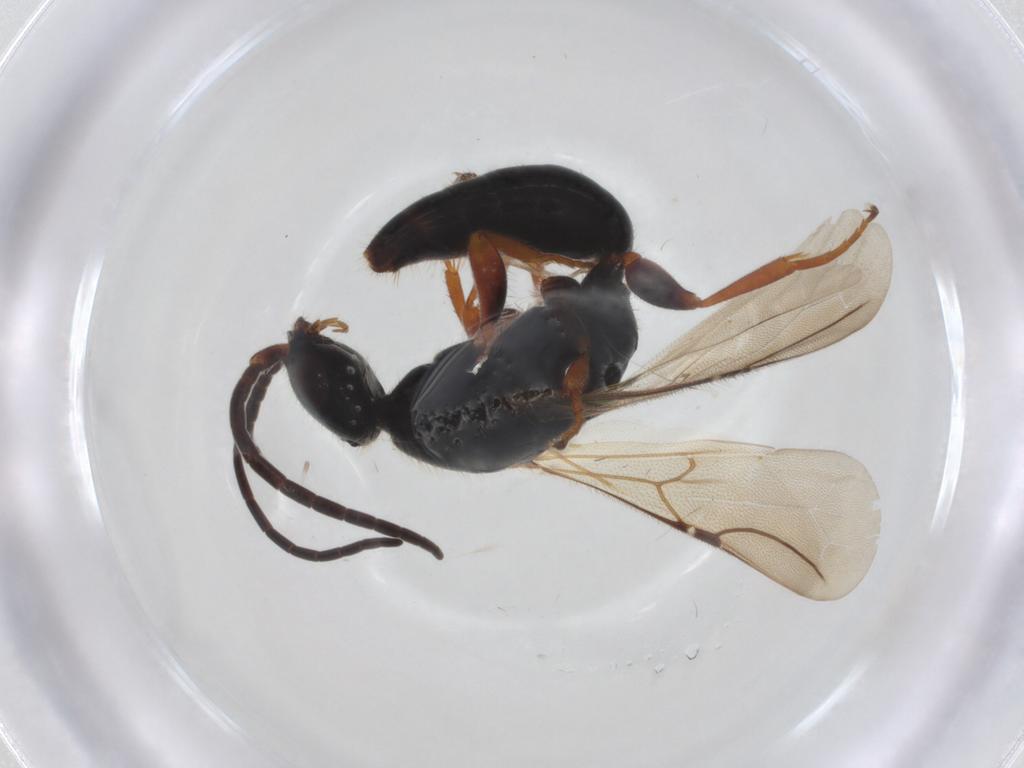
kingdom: Animalia
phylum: Arthropoda
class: Insecta
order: Hymenoptera
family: Bethylidae
